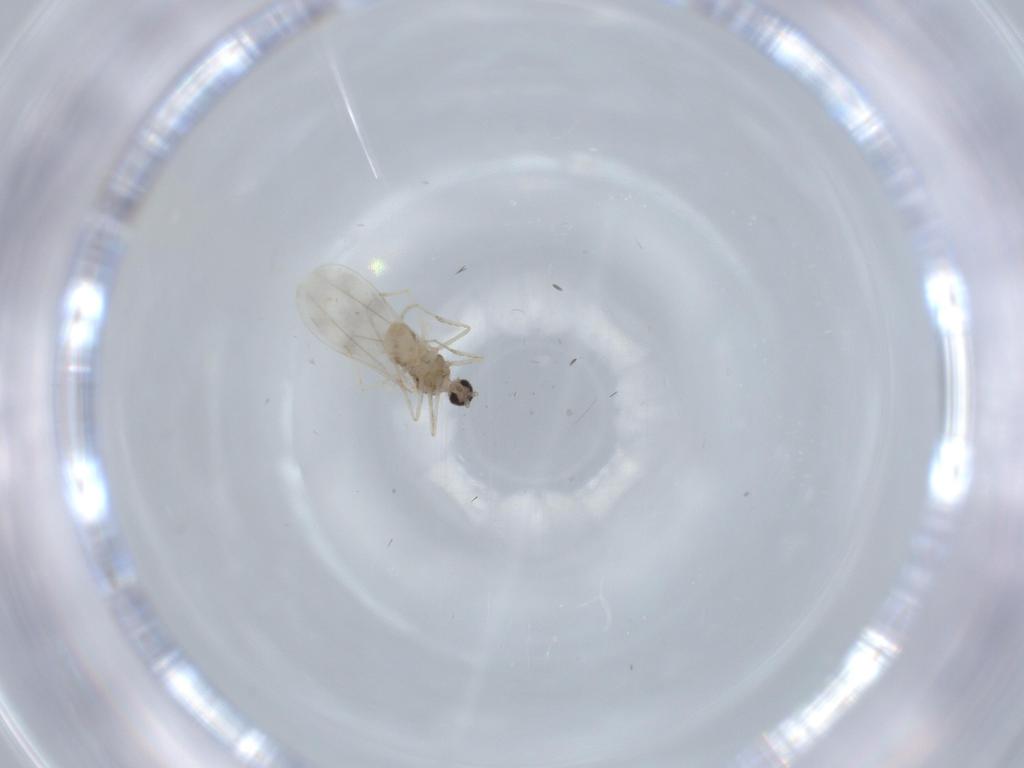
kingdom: Animalia
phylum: Arthropoda
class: Insecta
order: Diptera
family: Cecidomyiidae
